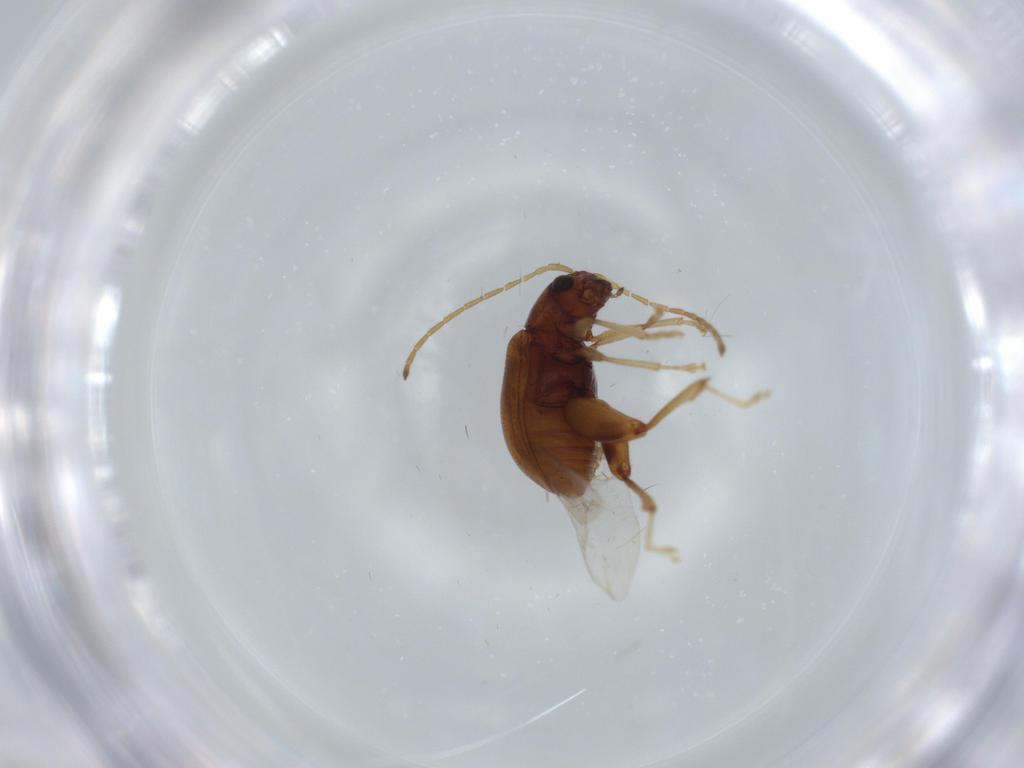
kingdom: Animalia
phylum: Arthropoda
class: Insecta
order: Coleoptera
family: Chrysomelidae
